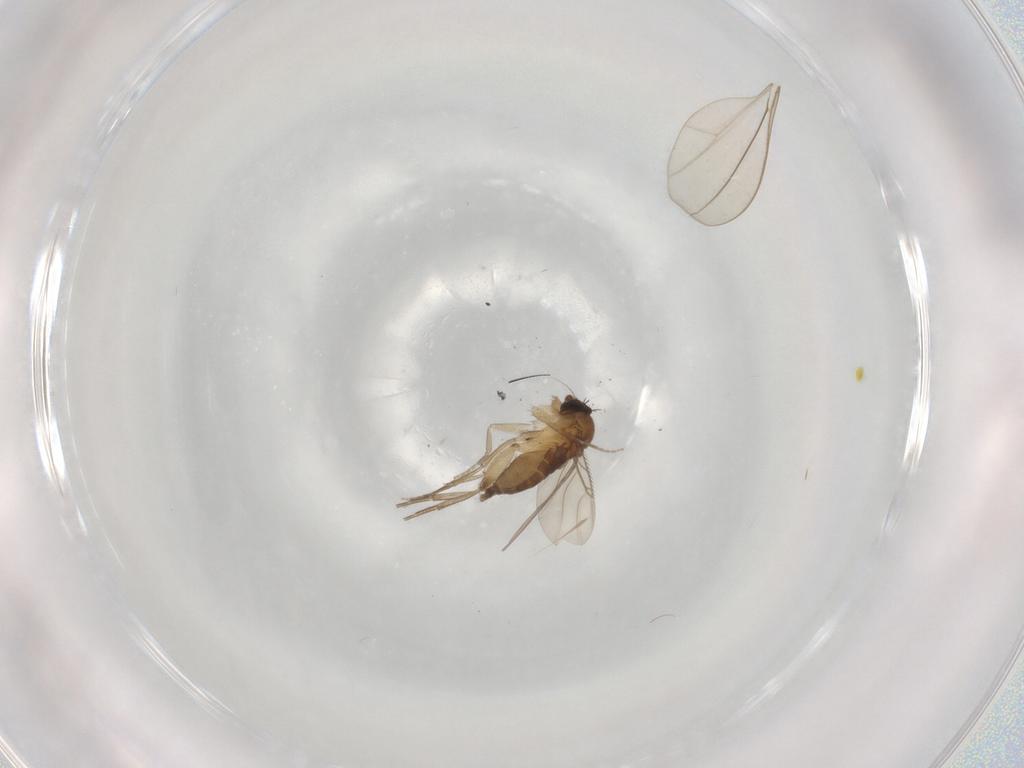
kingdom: Animalia
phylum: Arthropoda
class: Insecta
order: Diptera
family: Phoridae
